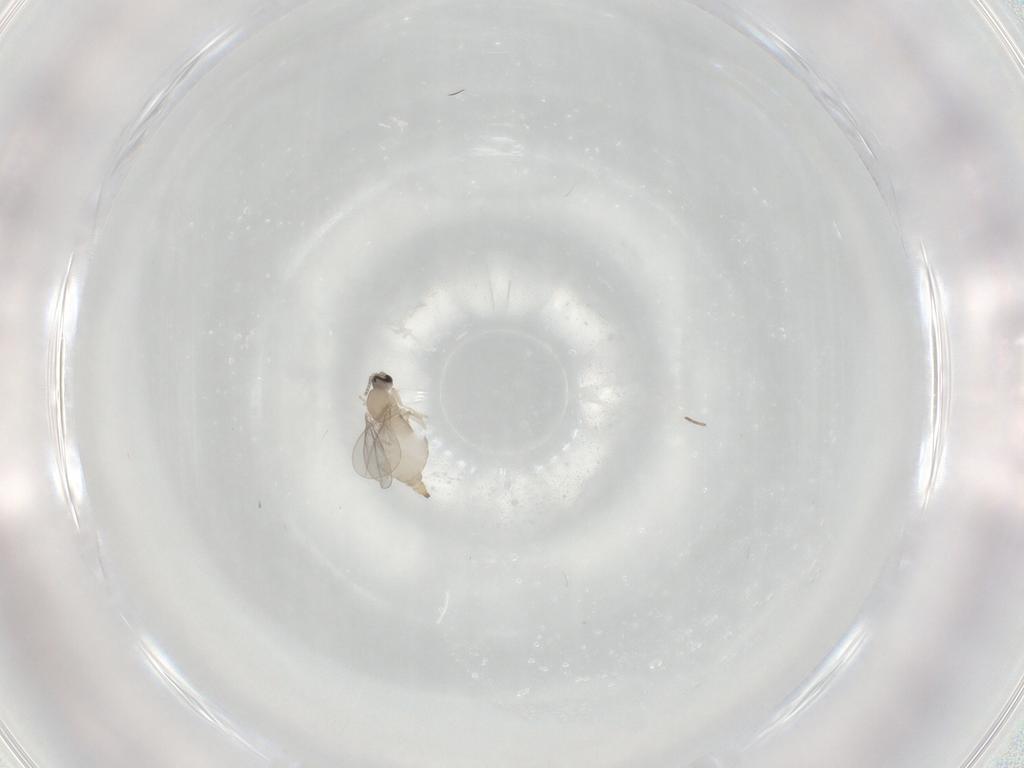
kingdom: Animalia
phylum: Arthropoda
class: Insecta
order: Diptera
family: Cecidomyiidae
